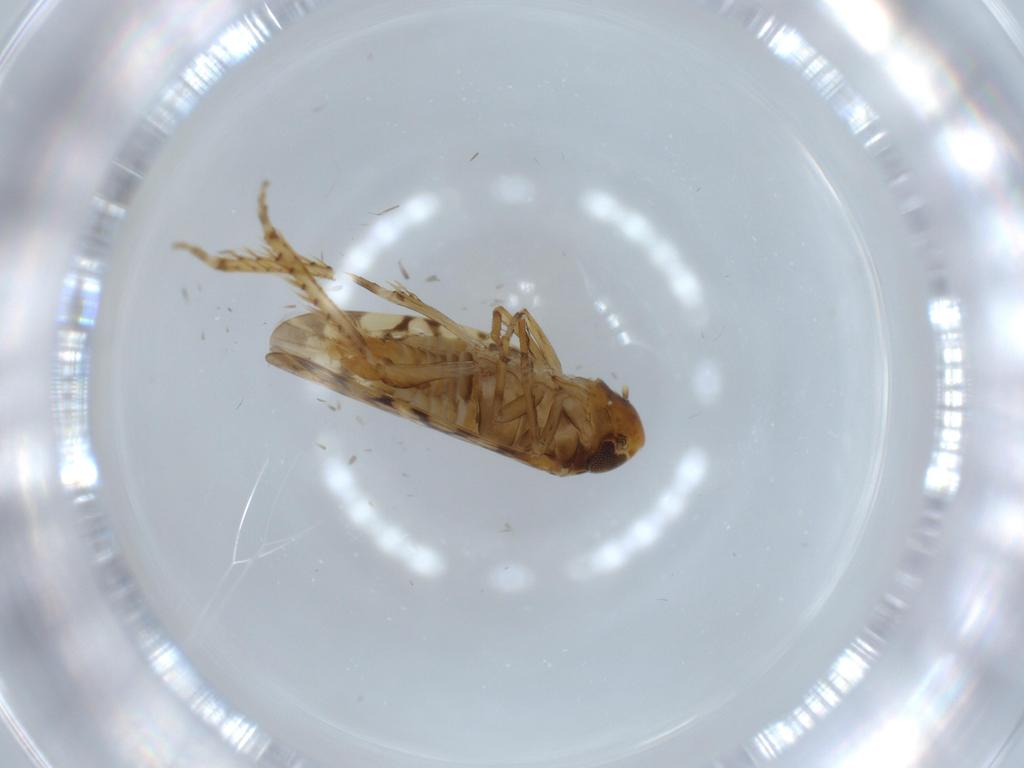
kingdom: Animalia
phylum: Arthropoda
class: Insecta
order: Hemiptera
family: Cicadellidae
